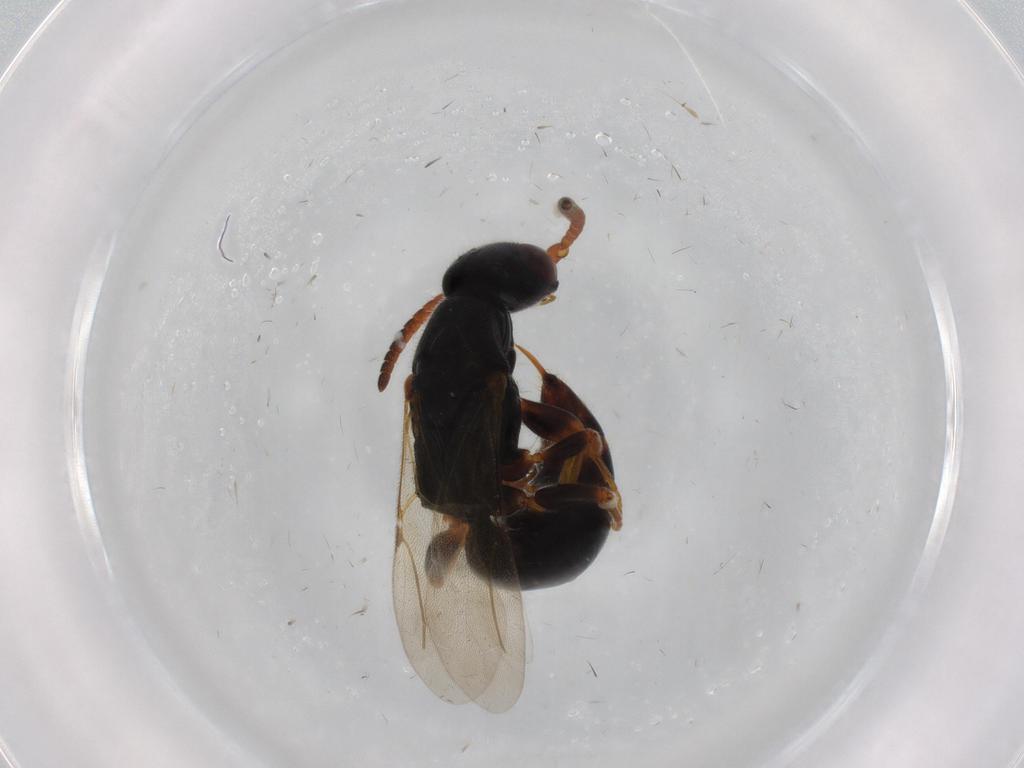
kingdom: Animalia
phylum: Arthropoda
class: Insecta
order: Hymenoptera
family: Bethylidae
